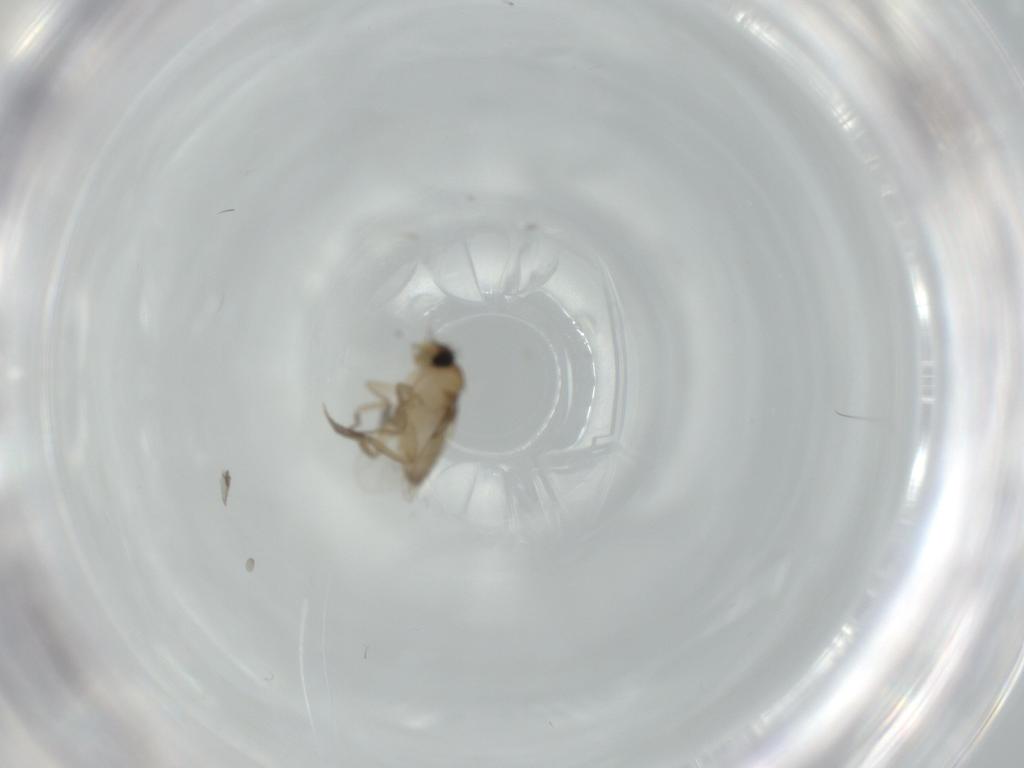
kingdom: Animalia
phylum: Arthropoda
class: Insecta
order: Diptera
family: Phoridae
